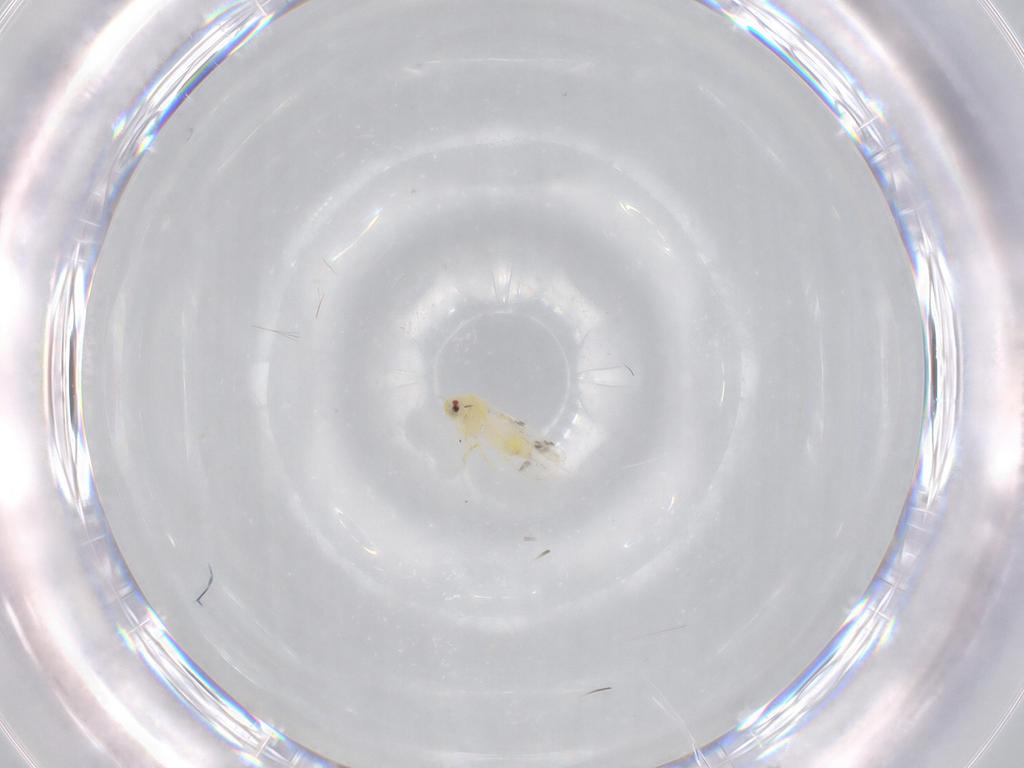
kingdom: Animalia
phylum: Arthropoda
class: Insecta
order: Hemiptera
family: Aleyrodidae
